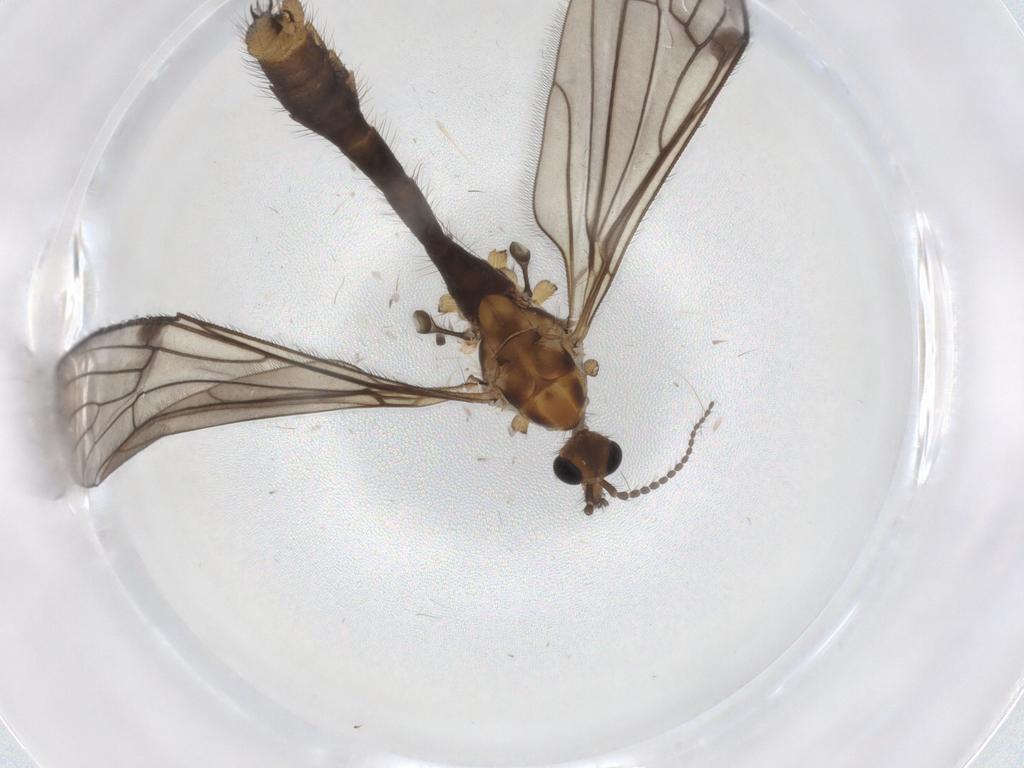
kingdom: Animalia
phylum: Arthropoda
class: Insecta
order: Diptera
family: Limoniidae
